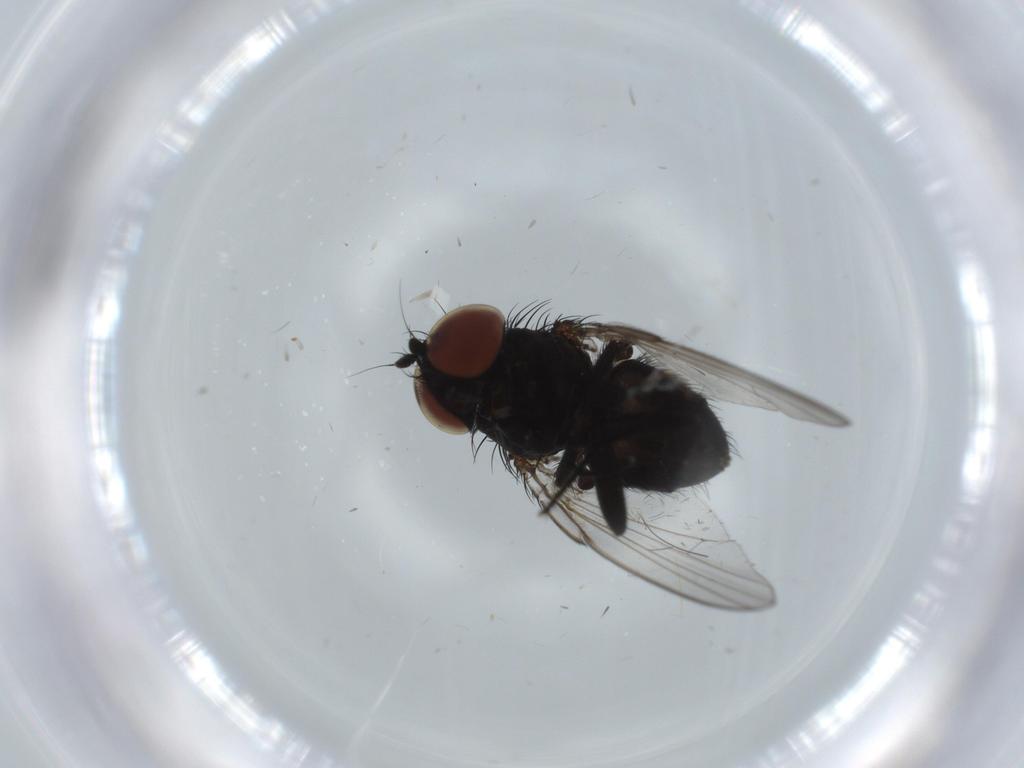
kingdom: Animalia
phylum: Arthropoda
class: Insecta
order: Diptera
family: Milichiidae
